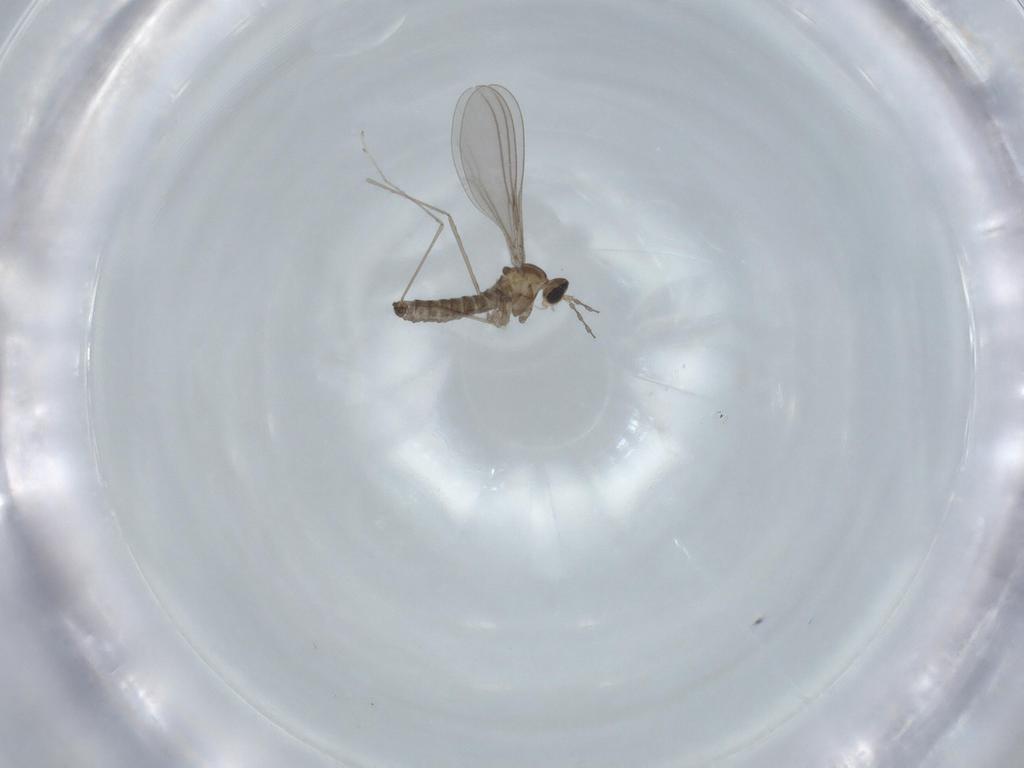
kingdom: Animalia
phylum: Arthropoda
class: Insecta
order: Diptera
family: Cecidomyiidae
